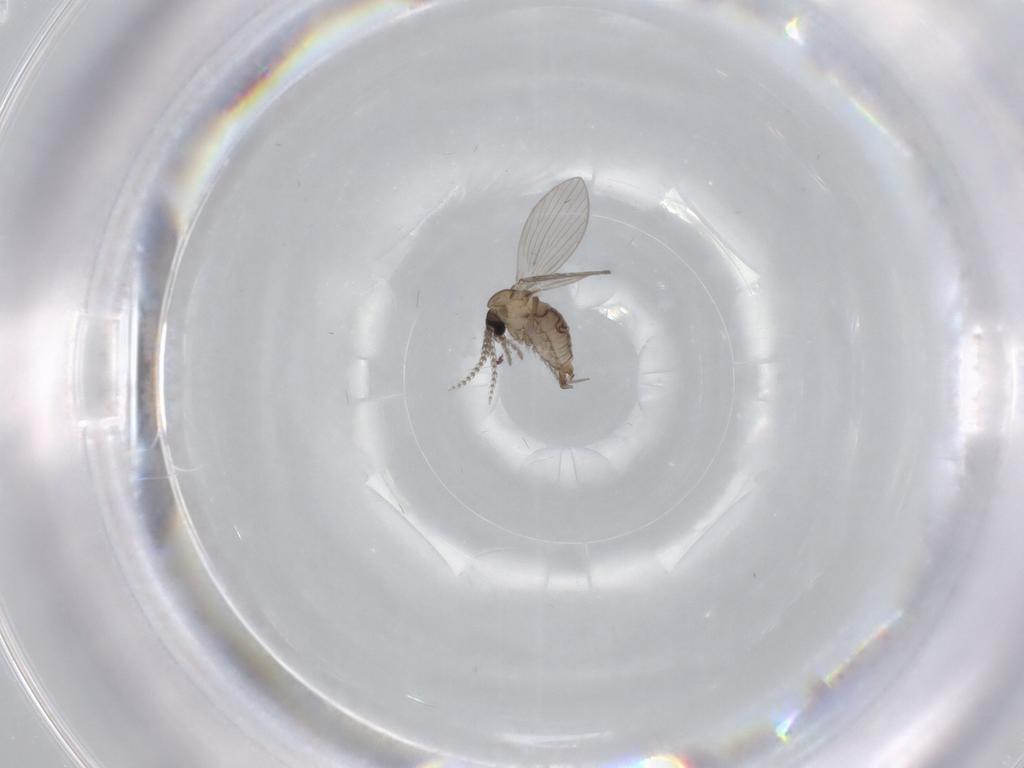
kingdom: Animalia
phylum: Arthropoda
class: Insecta
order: Diptera
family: Psychodidae
